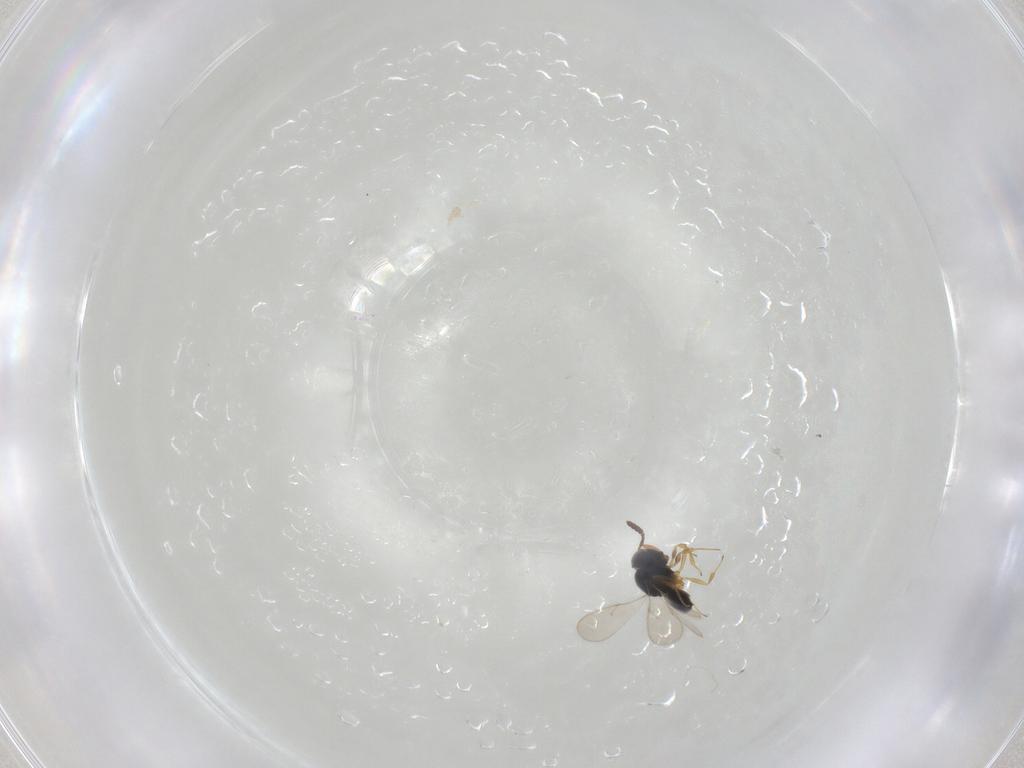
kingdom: Animalia
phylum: Arthropoda
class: Insecta
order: Hymenoptera
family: Scelionidae
